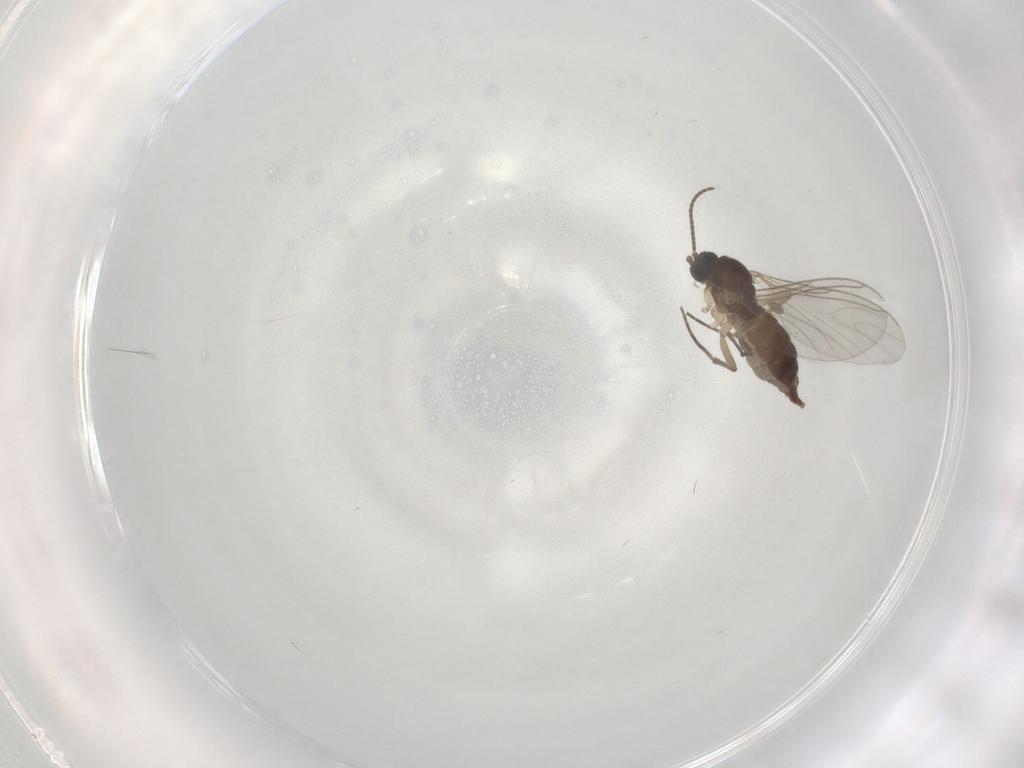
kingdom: Animalia
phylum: Arthropoda
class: Insecta
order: Diptera
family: Sciaridae
